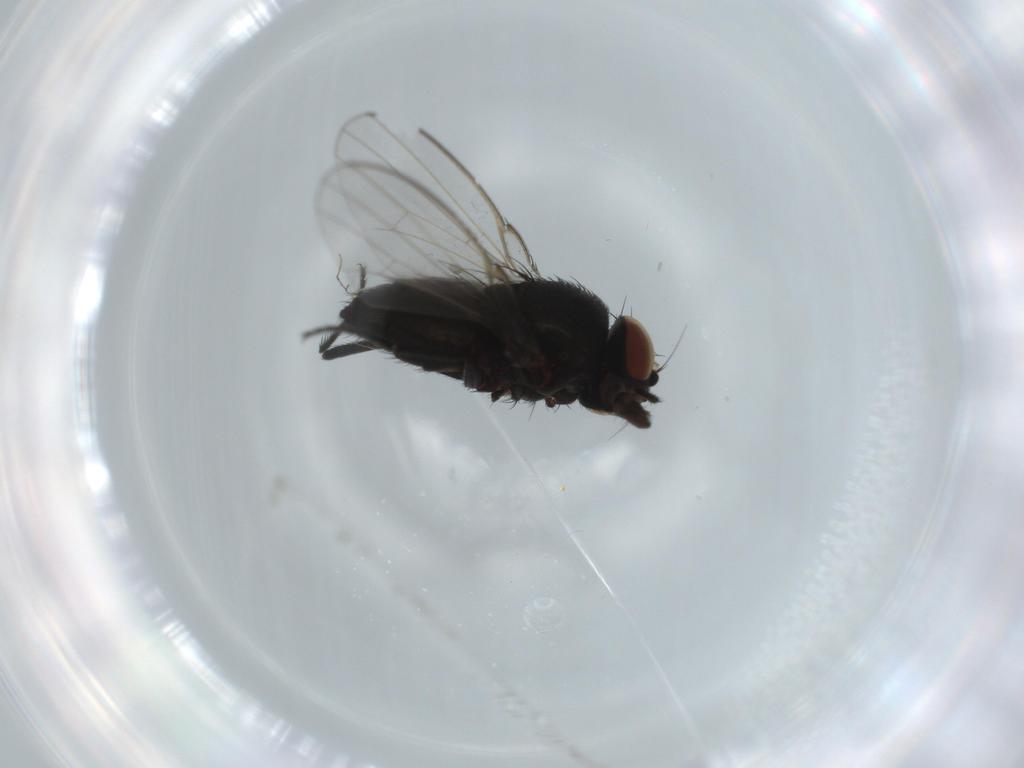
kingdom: Animalia
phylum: Arthropoda
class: Insecta
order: Diptera
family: Milichiidae
